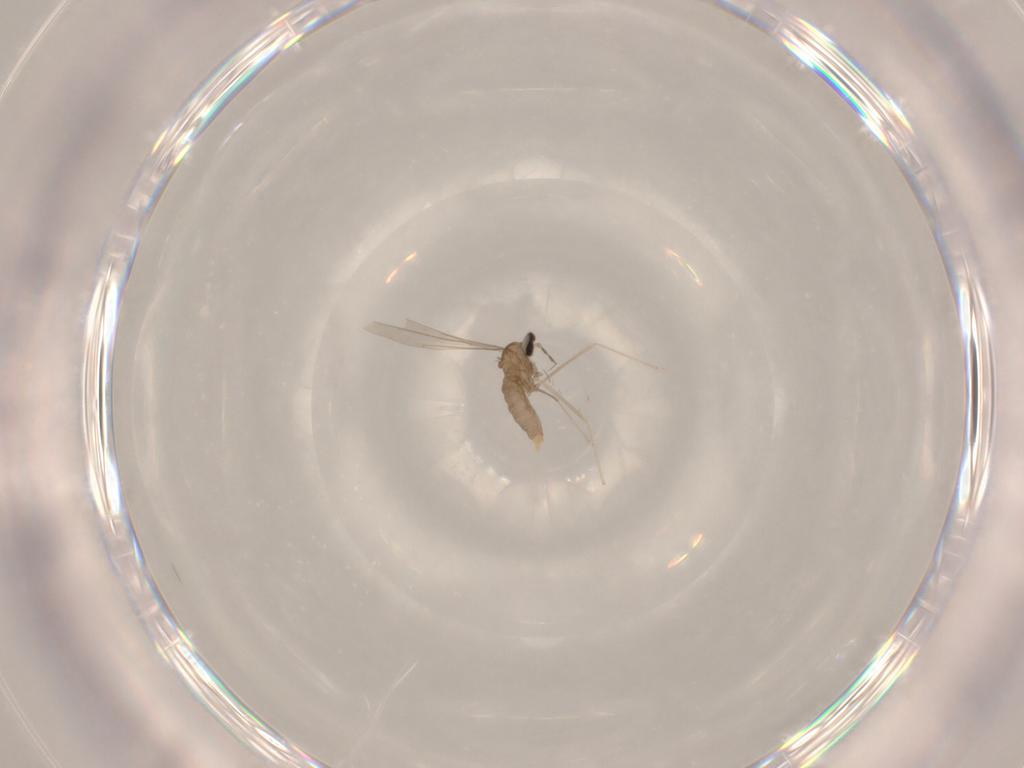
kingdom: Animalia
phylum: Arthropoda
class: Insecta
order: Diptera
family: Cecidomyiidae
